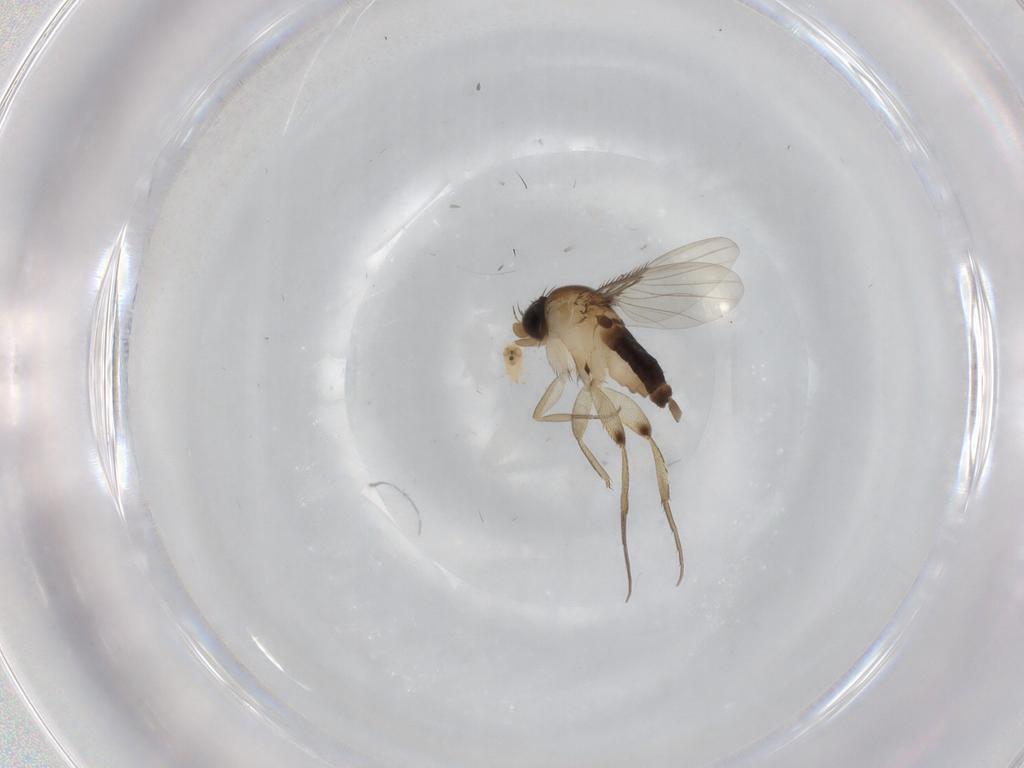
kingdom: Animalia
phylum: Arthropoda
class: Insecta
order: Diptera
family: Phoridae
